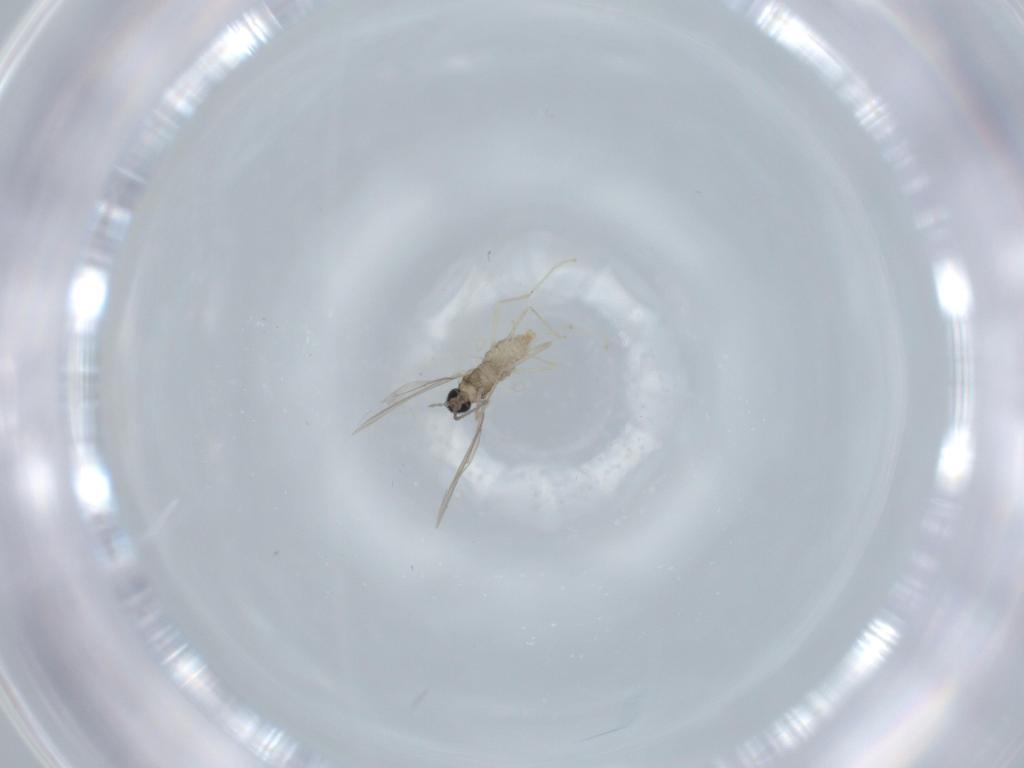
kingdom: Animalia
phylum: Arthropoda
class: Insecta
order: Diptera
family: Cecidomyiidae
